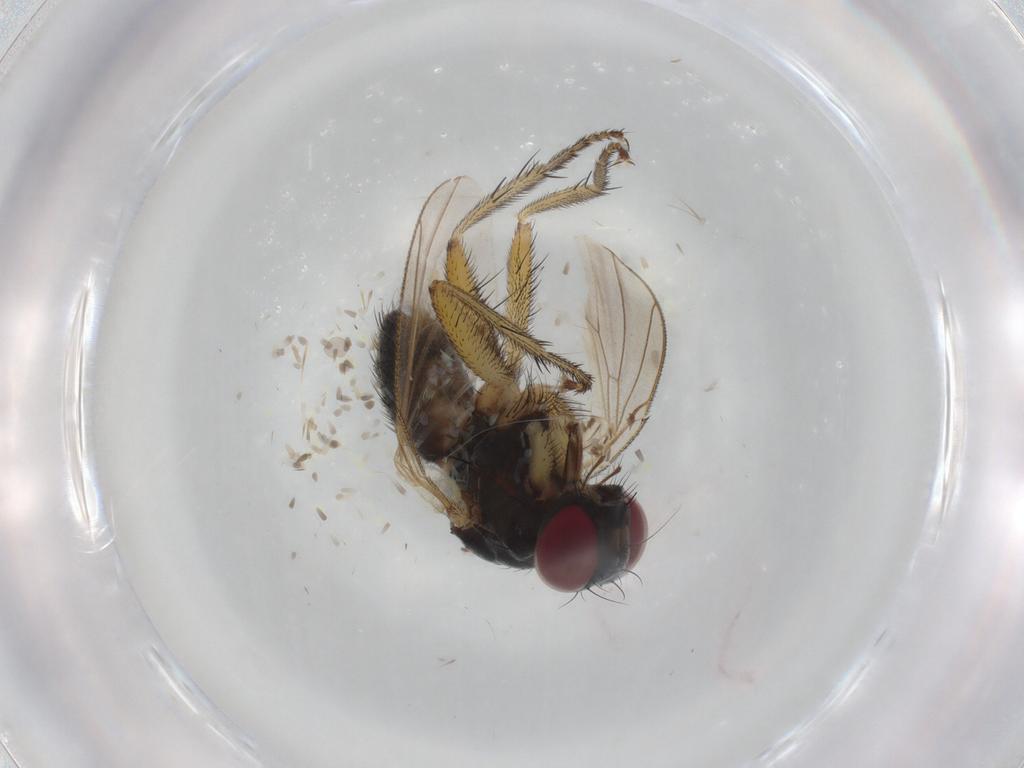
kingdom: Animalia
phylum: Arthropoda
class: Insecta
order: Diptera
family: Muscidae
